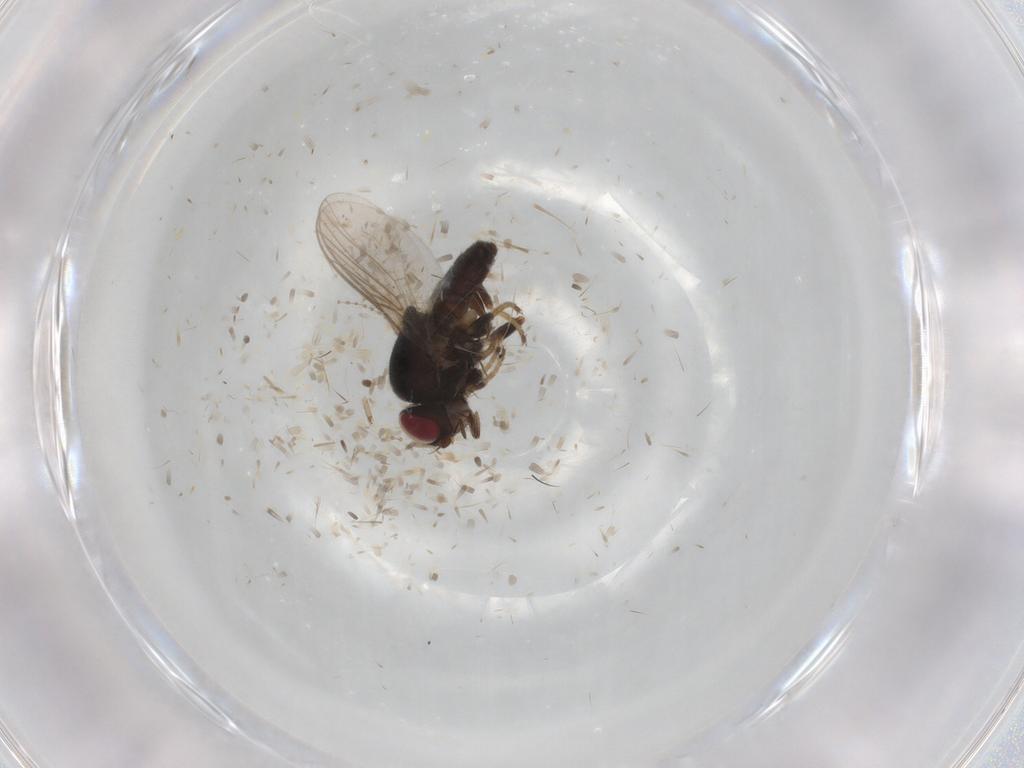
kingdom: Animalia
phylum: Arthropoda
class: Insecta
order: Diptera
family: Chloropidae
